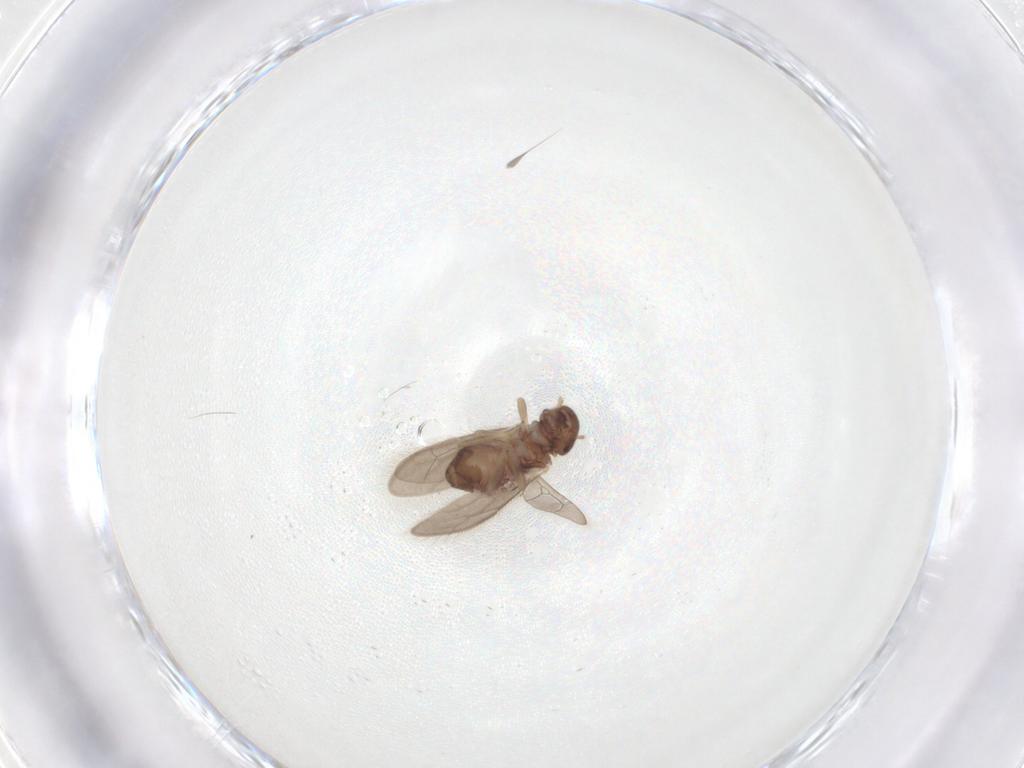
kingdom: Animalia
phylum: Arthropoda
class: Insecta
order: Psocodea
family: Archipsocidae
